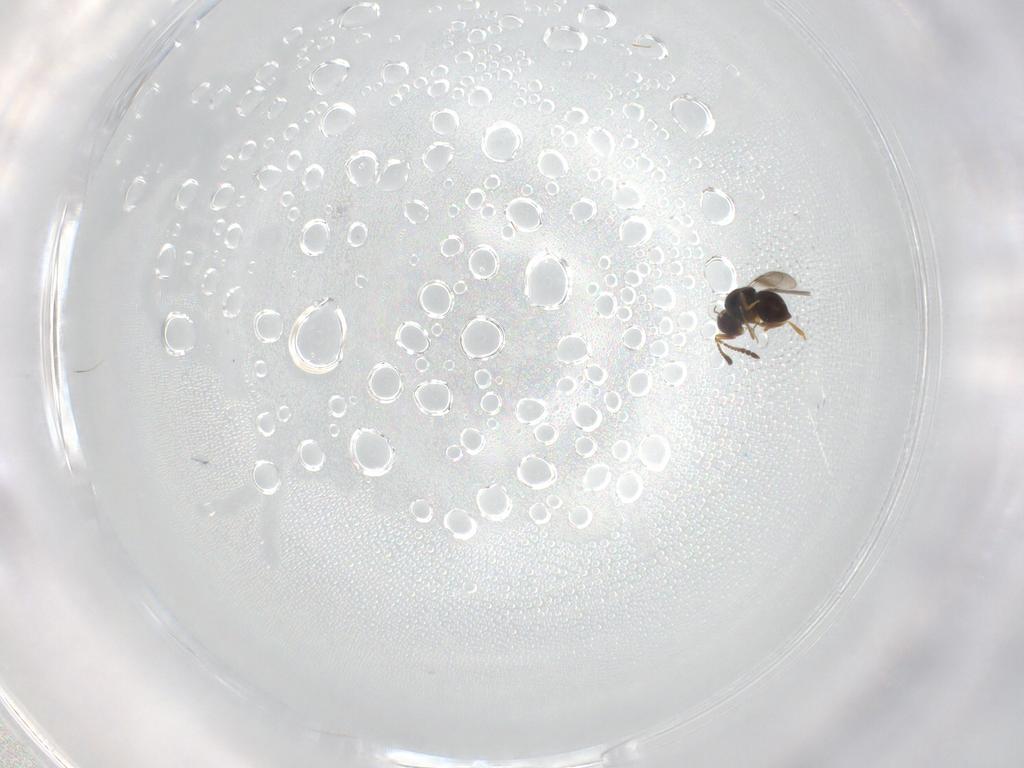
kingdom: Animalia
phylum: Arthropoda
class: Insecta
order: Hymenoptera
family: Ceraphronidae
